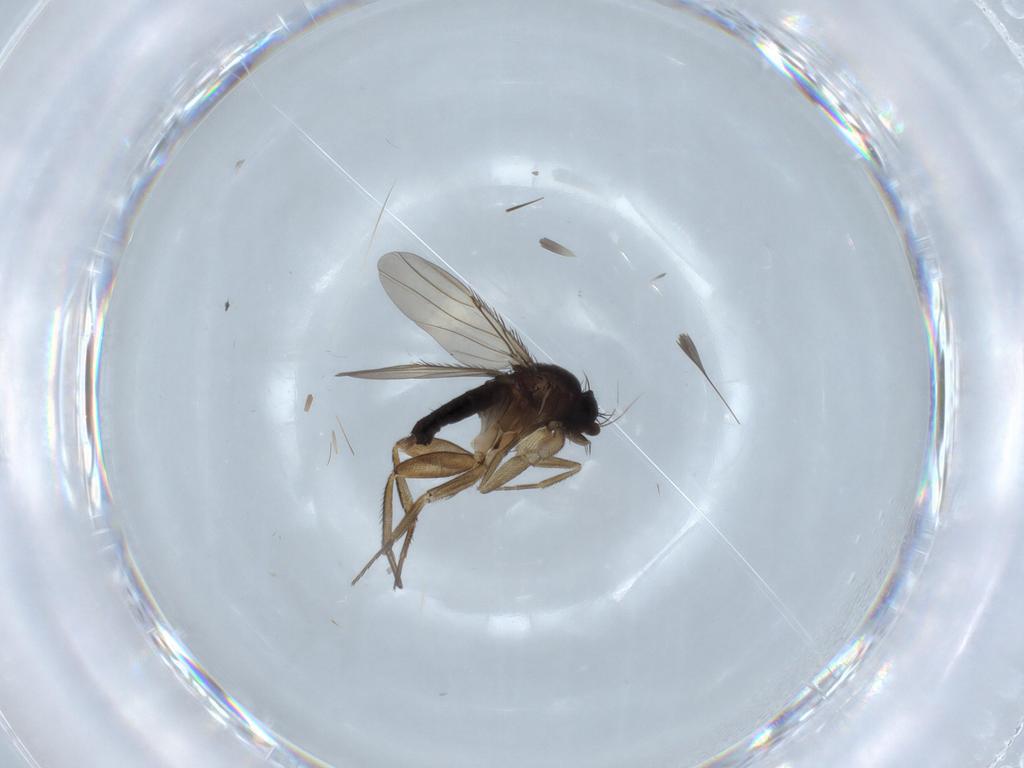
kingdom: Animalia
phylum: Arthropoda
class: Insecta
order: Diptera
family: Phoridae
